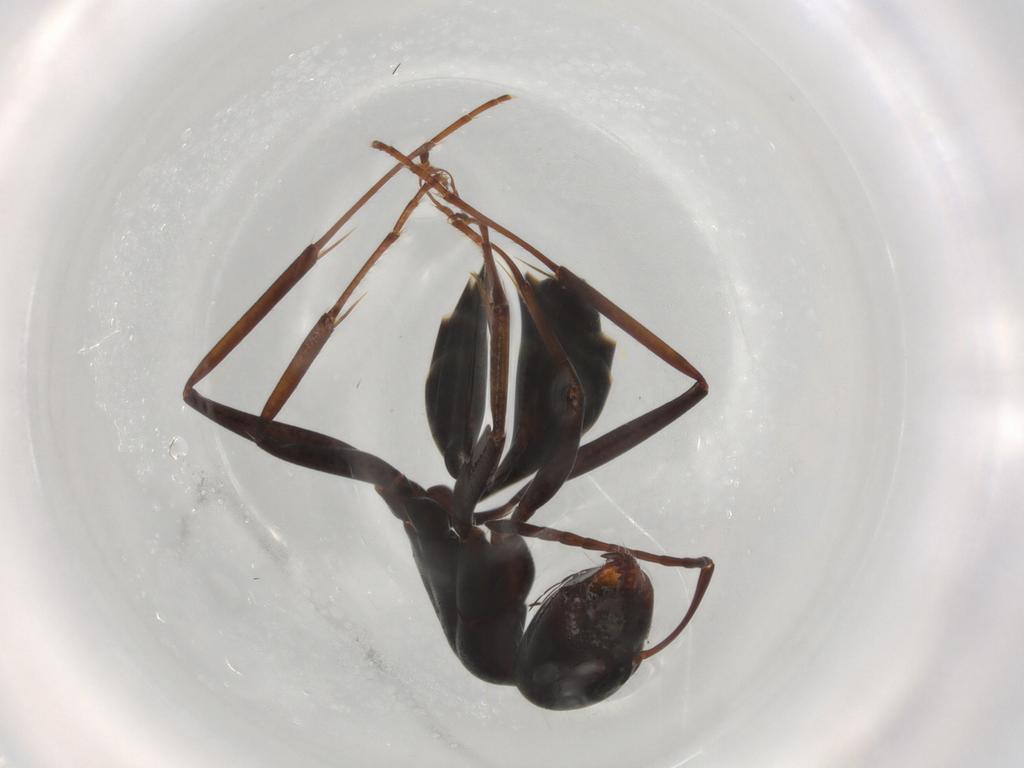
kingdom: Animalia
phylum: Arthropoda
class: Insecta
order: Hymenoptera
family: Formicidae
